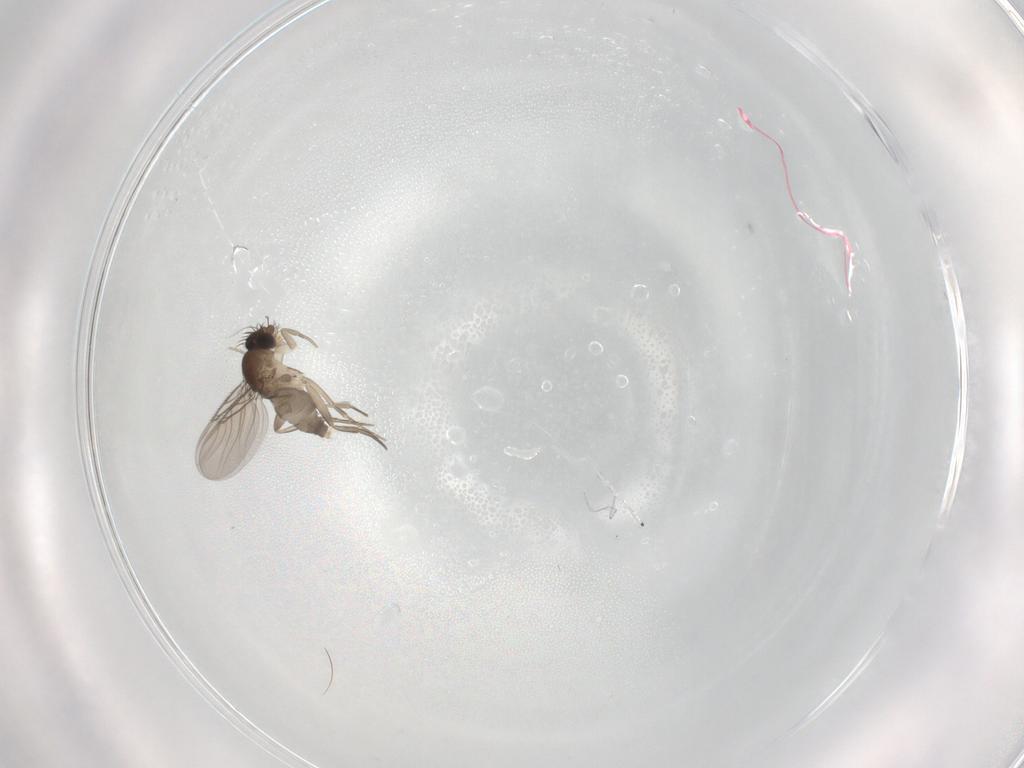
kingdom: Animalia
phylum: Arthropoda
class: Insecta
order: Diptera
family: Phoridae
